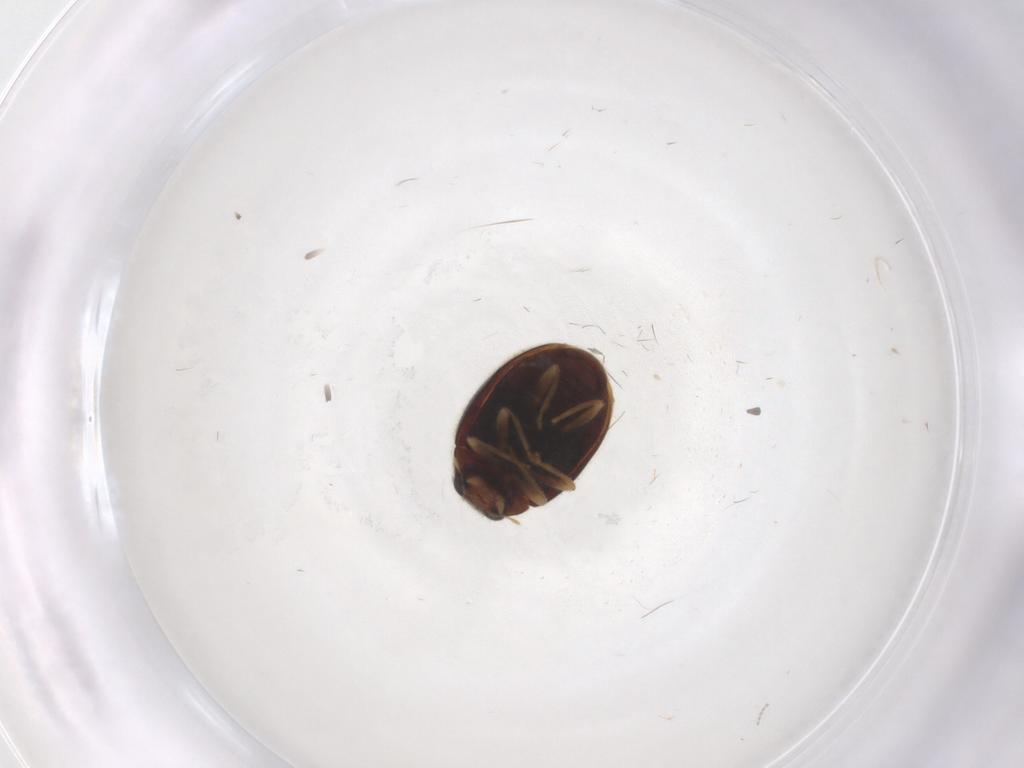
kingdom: Animalia
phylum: Arthropoda
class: Insecta
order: Coleoptera
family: Coccinellidae
